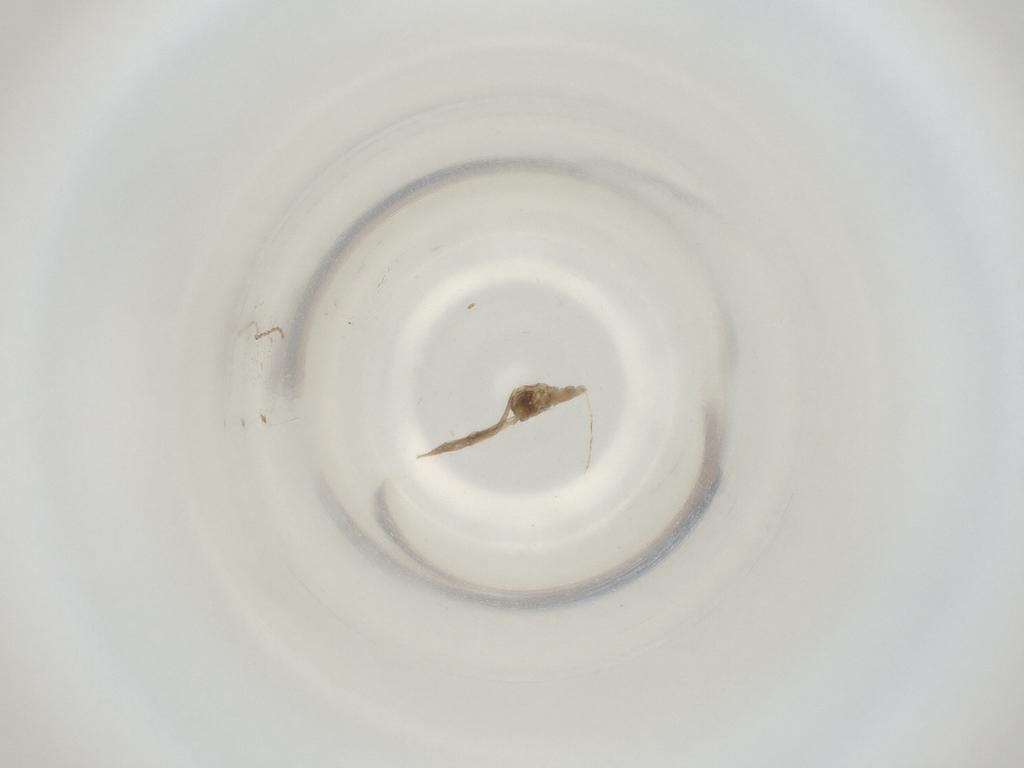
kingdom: Animalia
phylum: Arthropoda
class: Insecta
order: Diptera
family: Cecidomyiidae
